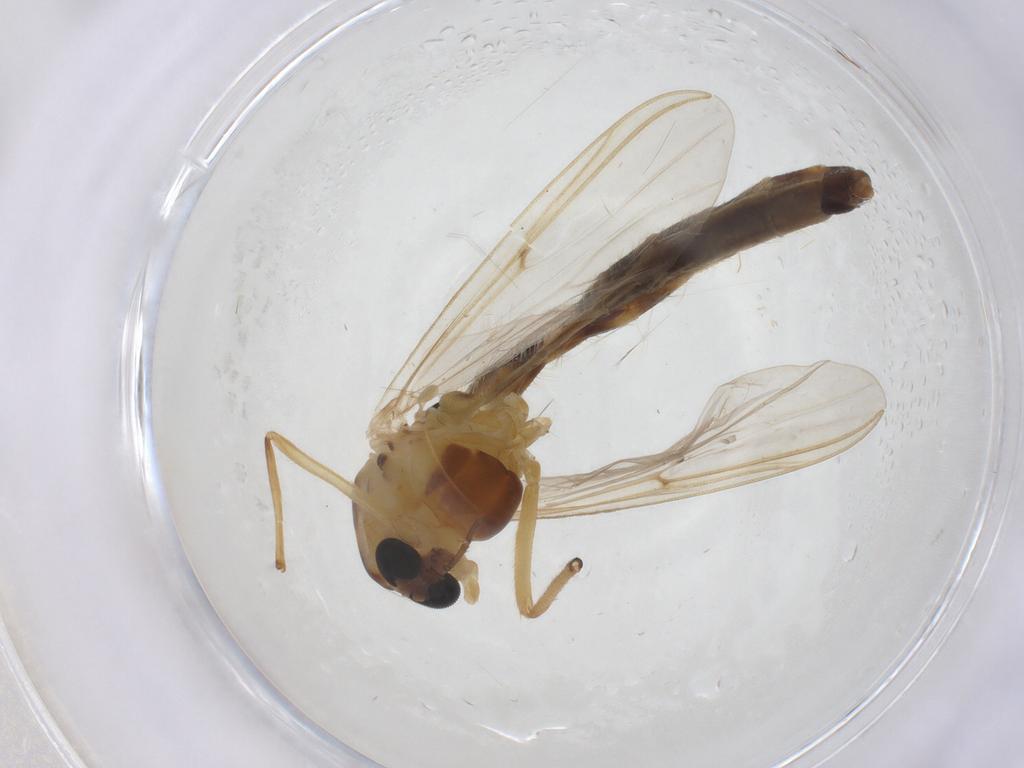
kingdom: Animalia
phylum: Arthropoda
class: Insecta
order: Diptera
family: Chironomidae
